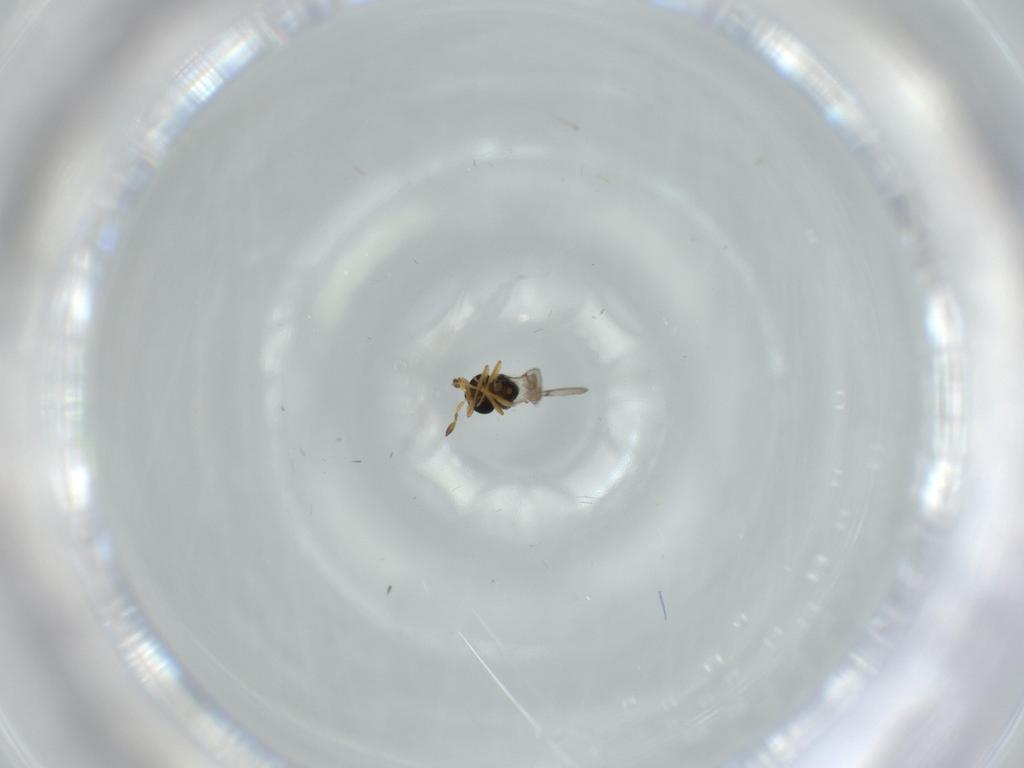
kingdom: Animalia
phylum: Arthropoda
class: Insecta
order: Hymenoptera
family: Scelionidae
